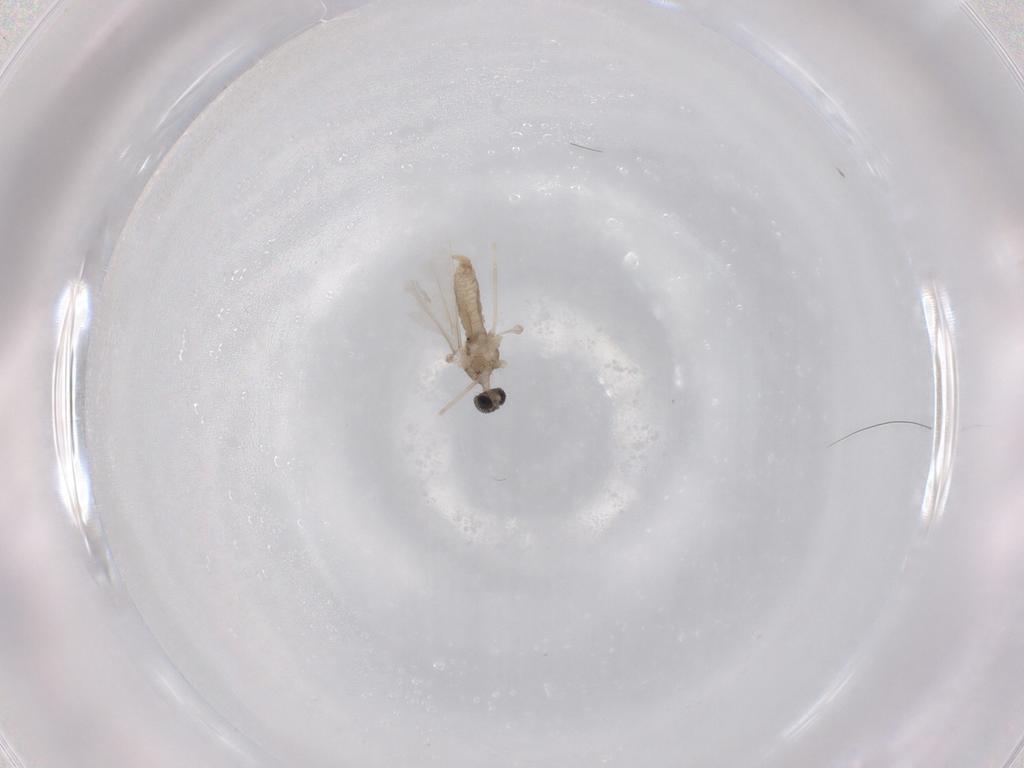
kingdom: Animalia
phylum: Arthropoda
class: Insecta
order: Diptera
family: Cecidomyiidae
